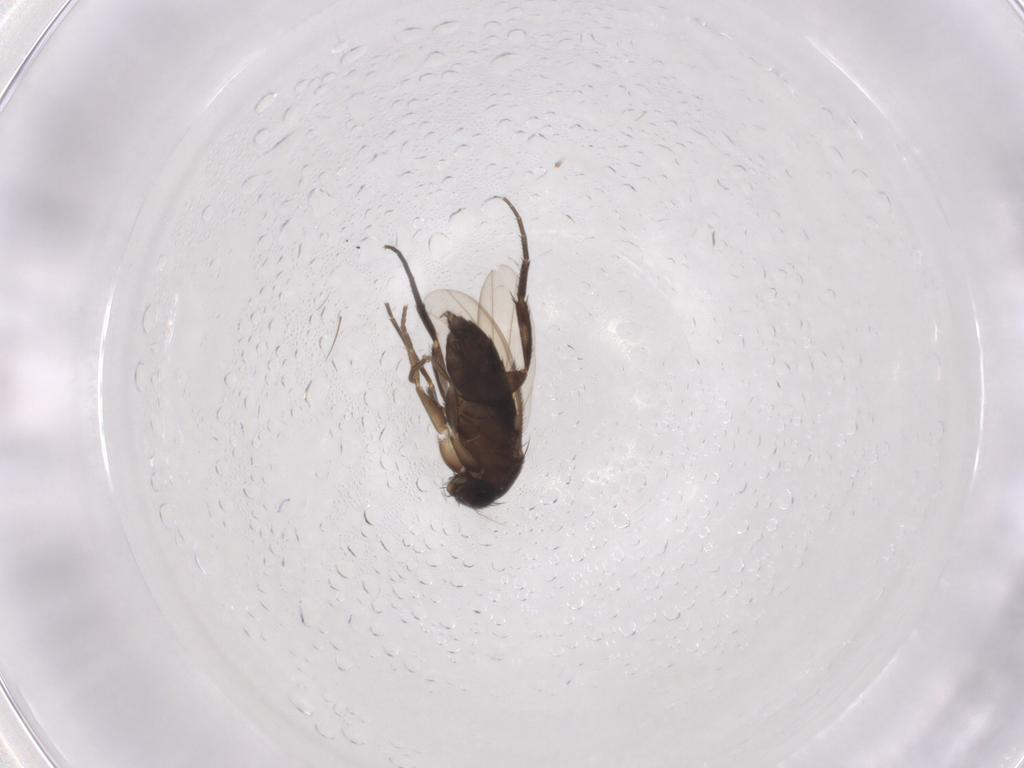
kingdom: Animalia
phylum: Arthropoda
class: Insecta
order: Diptera
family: Phoridae
